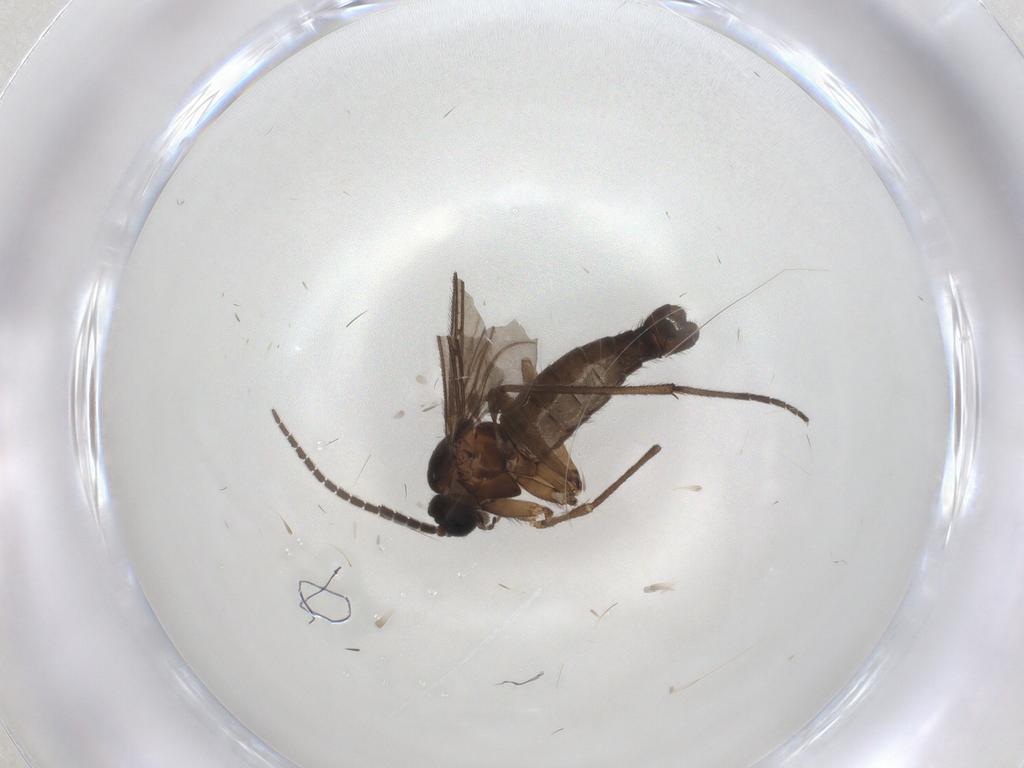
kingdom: Animalia
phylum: Arthropoda
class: Insecta
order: Diptera
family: Sciaridae
